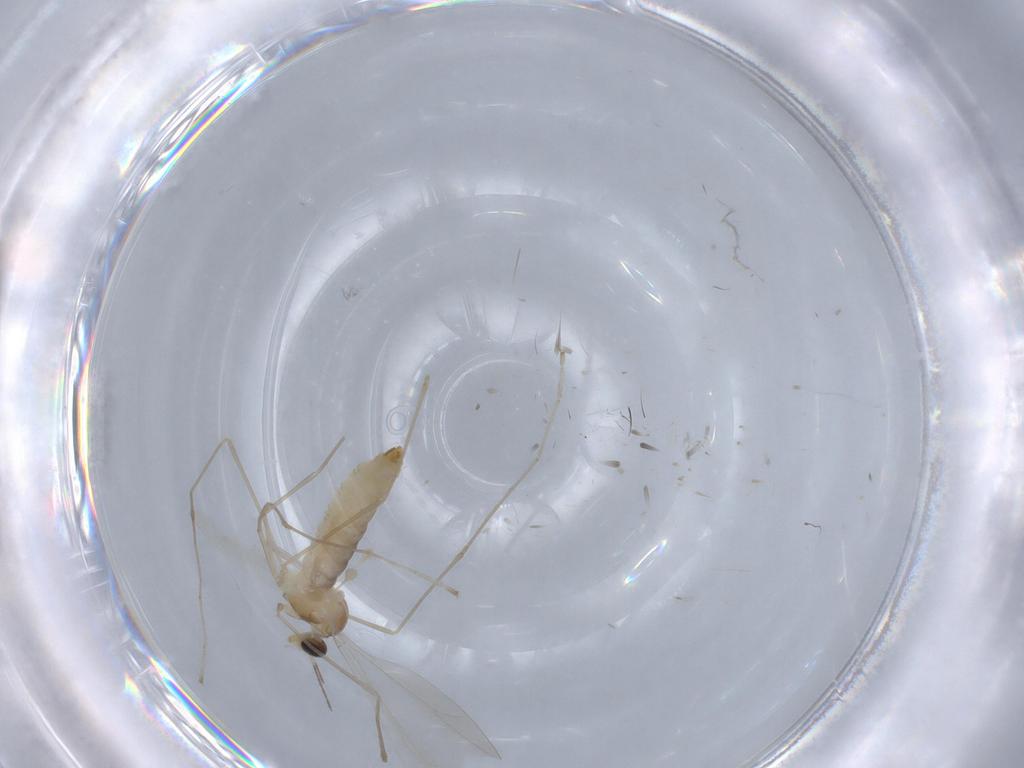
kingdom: Animalia
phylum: Arthropoda
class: Insecta
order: Diptera
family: Cecidomyiidae
